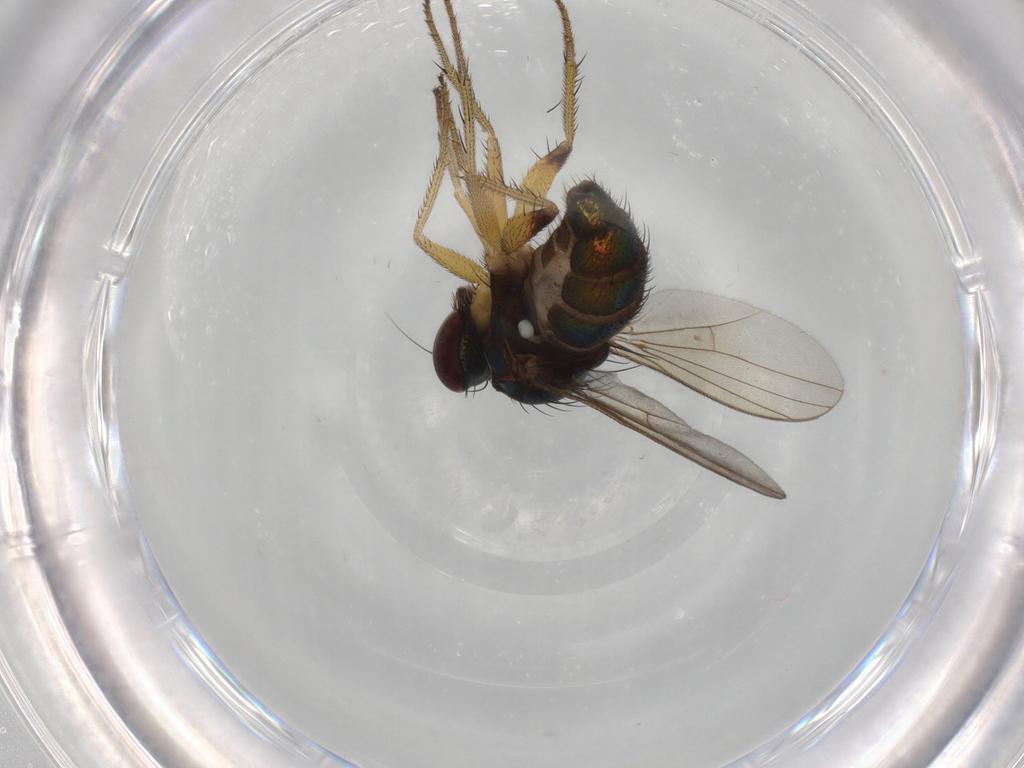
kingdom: Animalia
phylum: Arthropoda
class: Insecta
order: Diptera
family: Dolichopodidae
